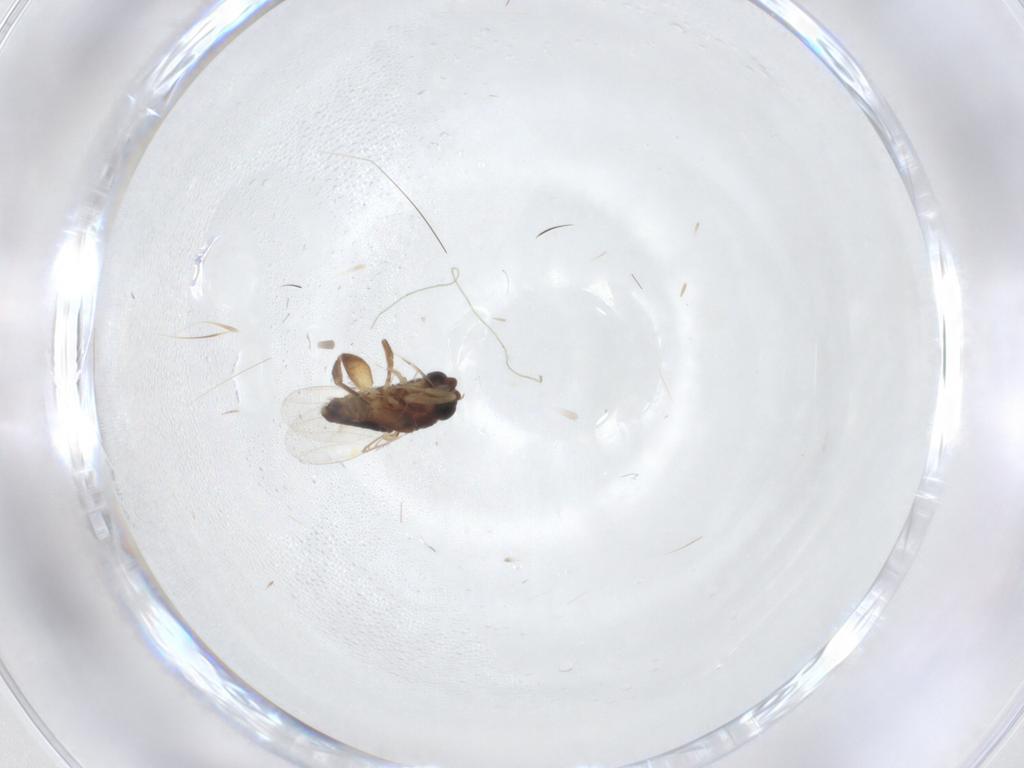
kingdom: Animalia
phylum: Arthropoda
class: Insecta
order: Diptera
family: Phoridae
